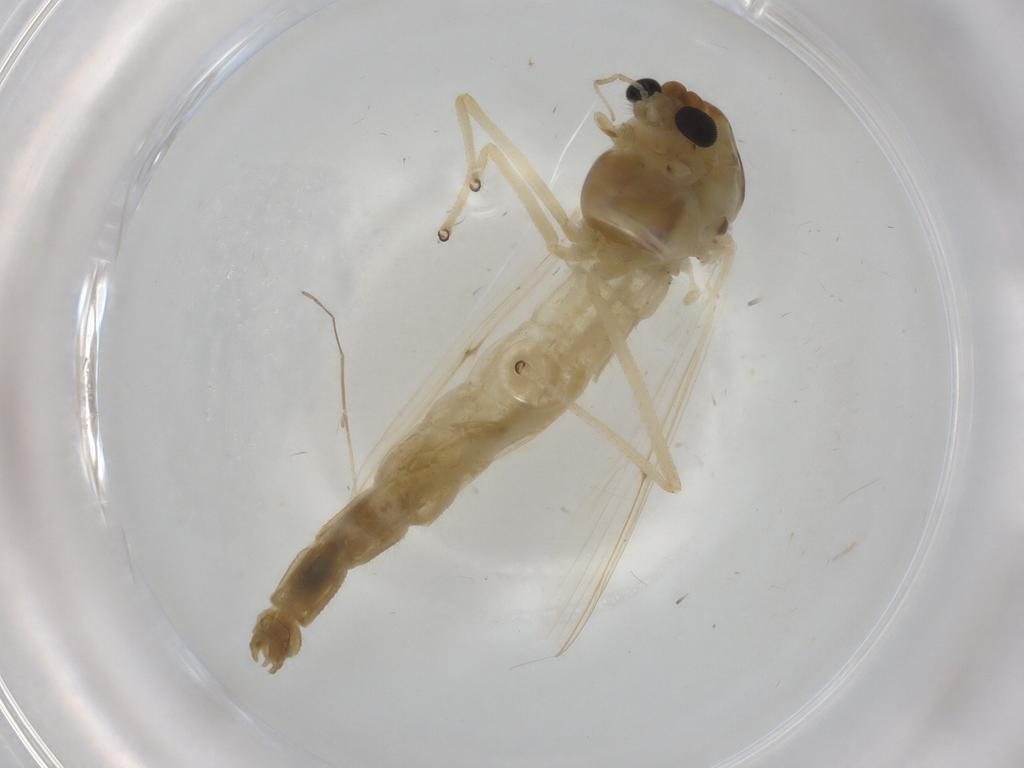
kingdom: Animalia
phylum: Arthropoda
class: Insecta
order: Diptera
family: Chironomidae
